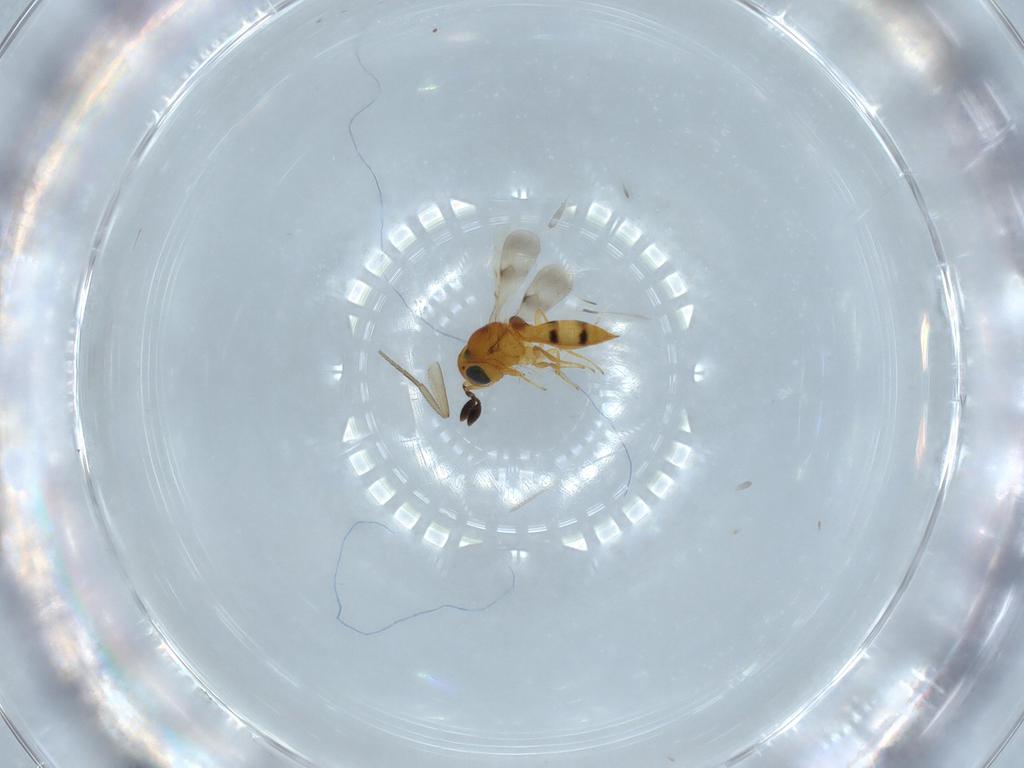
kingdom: Animalia
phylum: Arthropoda
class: Insecta
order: Hymenoptera
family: Scelionidae
